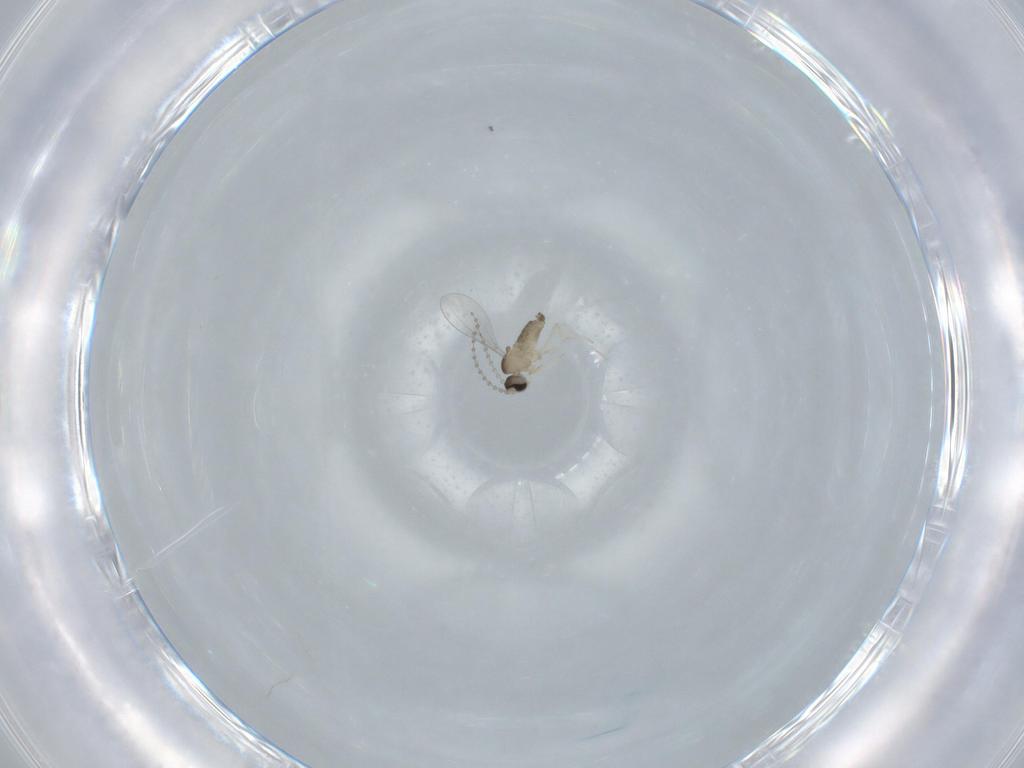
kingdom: Animalia
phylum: Arthropoda
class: Insecta
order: Diptera
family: Cecidomyiidae
